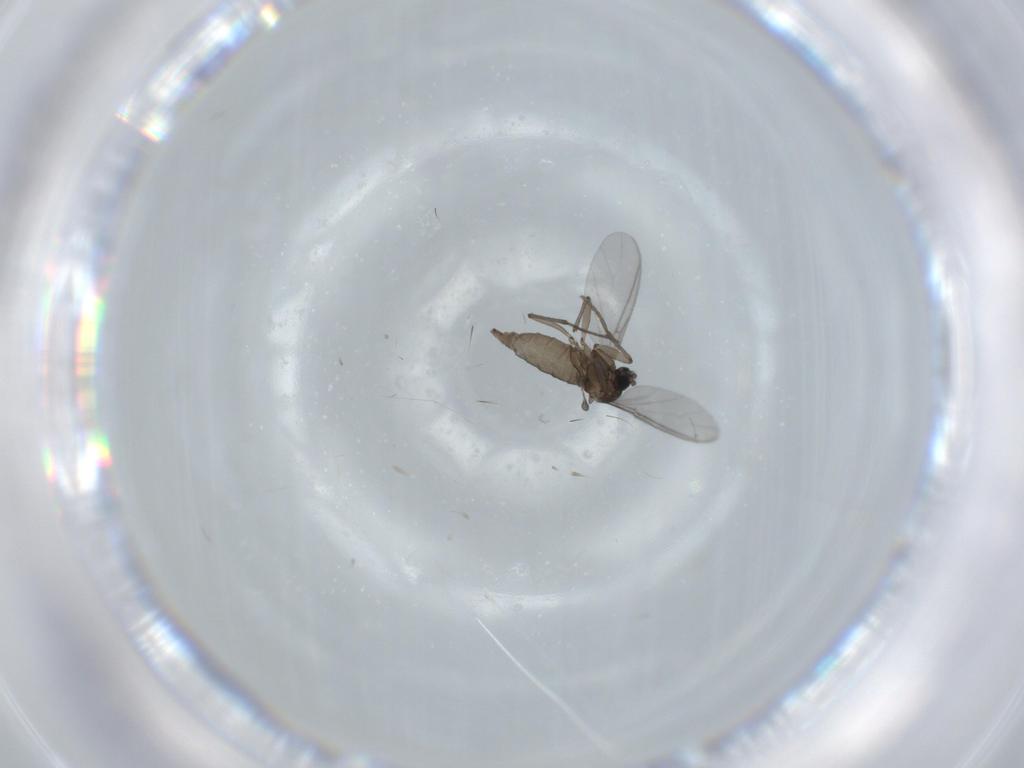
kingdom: Animalia
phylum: Arthropoda
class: Insecta
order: Diptera
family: Sciaridae
